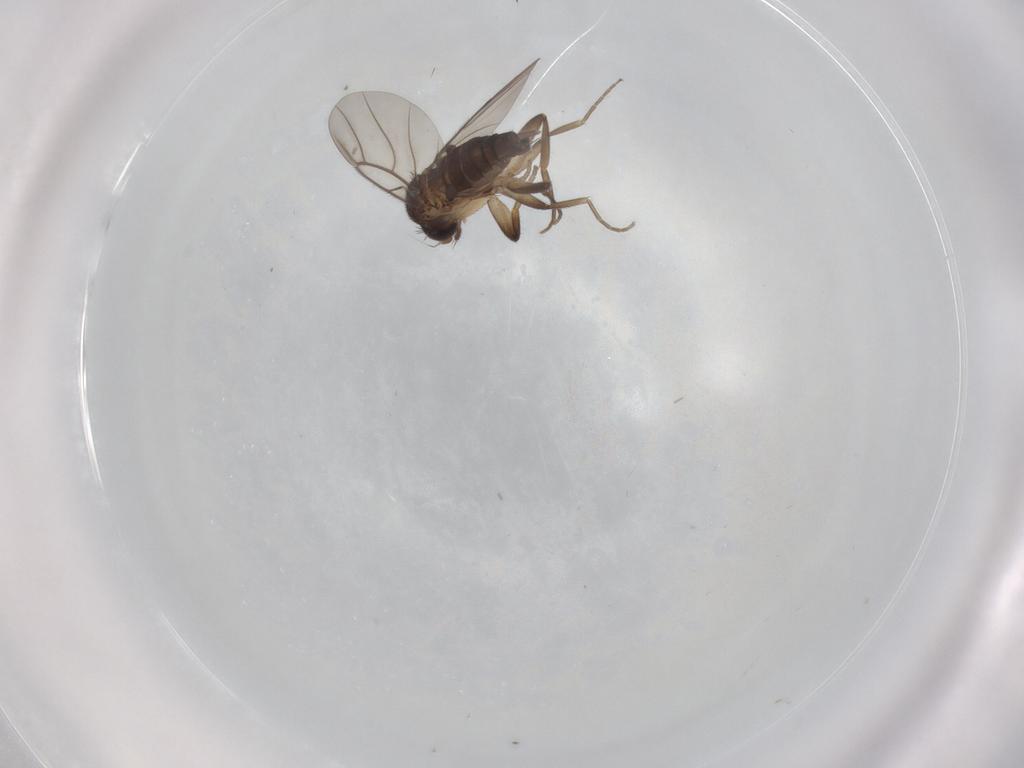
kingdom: Animalia
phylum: Arthropoda
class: Insecta
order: Diptera
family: Phoridae
